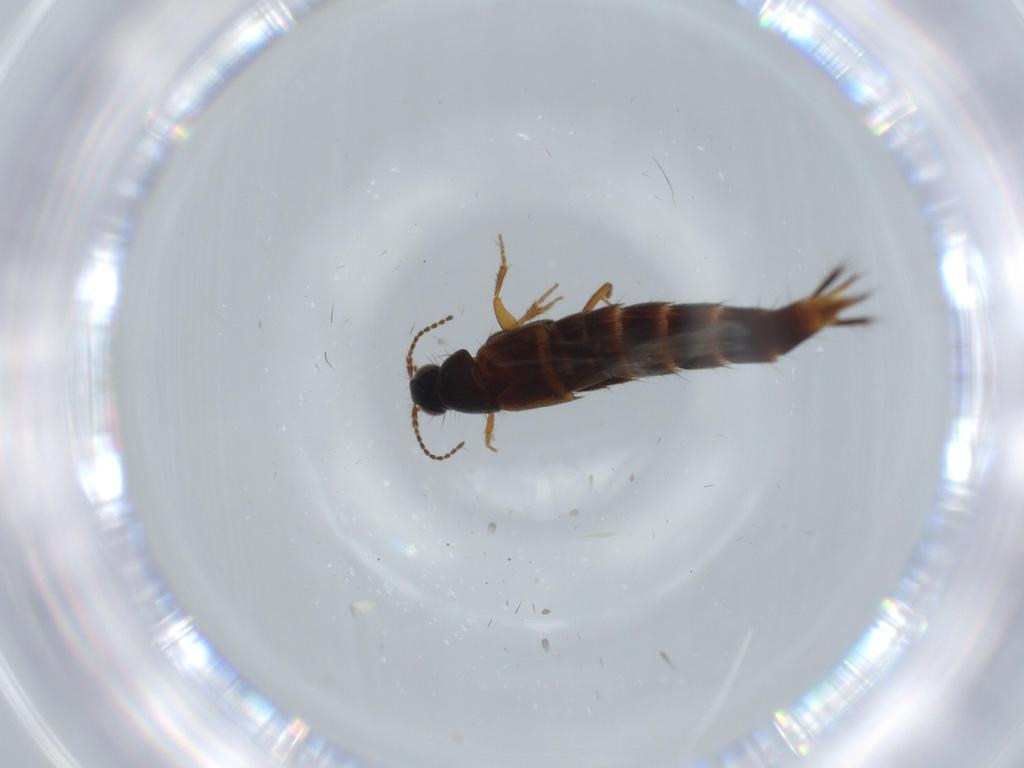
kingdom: Animalia
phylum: Arthropoda
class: Insecta
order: Coleoptera
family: Staphylinidae
